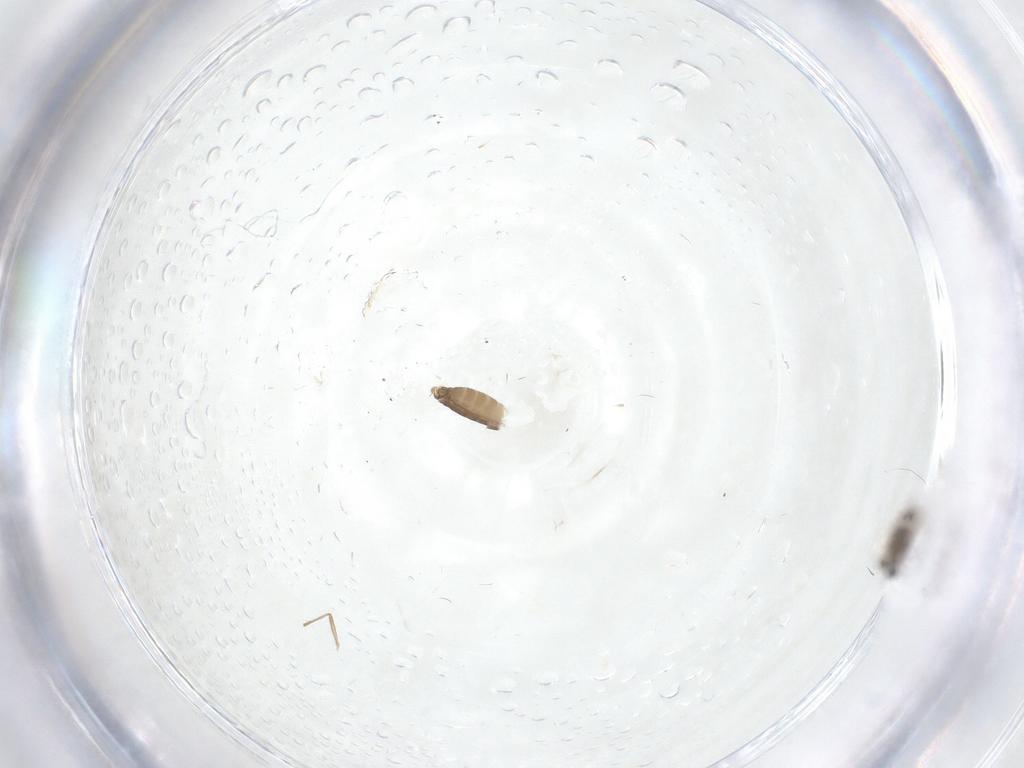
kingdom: Animalia
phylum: Arthropoda
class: Insecta
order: Diptera
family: Chironomidae
